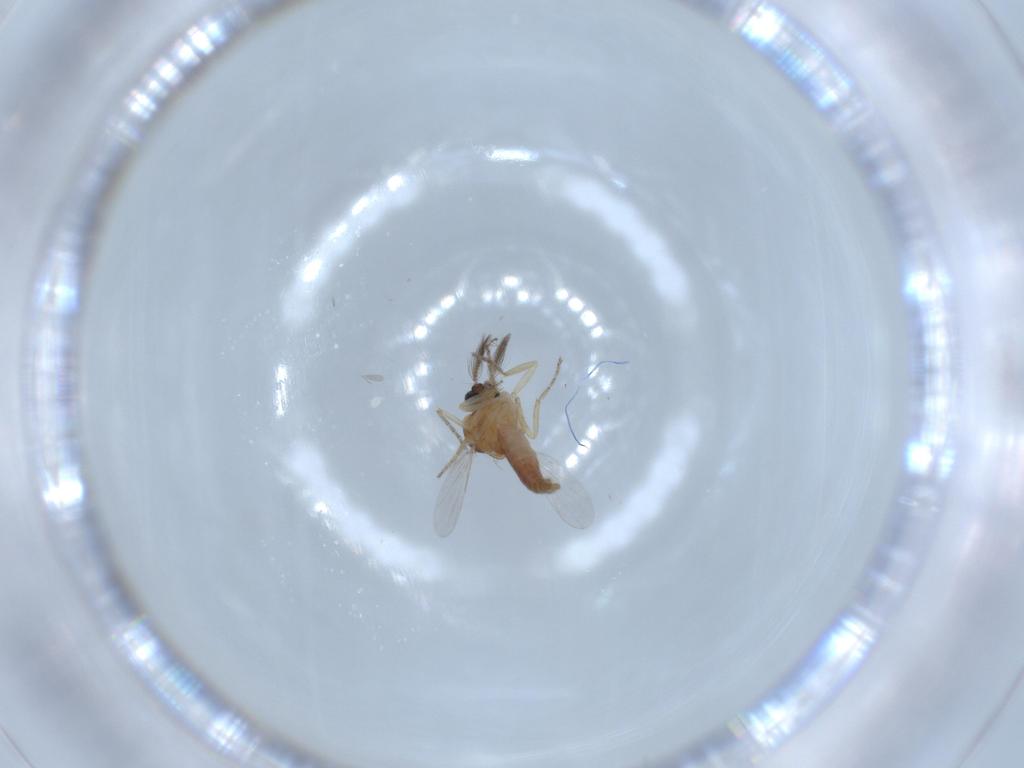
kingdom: Animalia
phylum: Arthropoda
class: Insecta
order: Diptera
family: Ceratopogonidae
